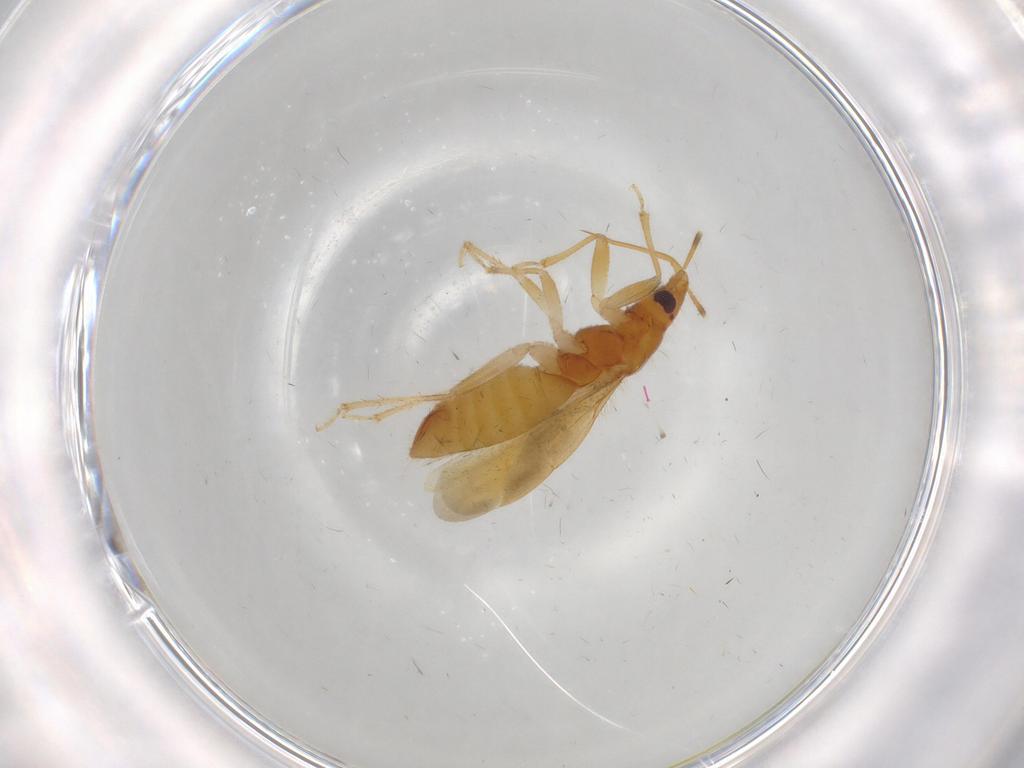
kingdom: Animalia
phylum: Arthropoda
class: Insecta
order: Hemiptera
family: Lasiochilidae
